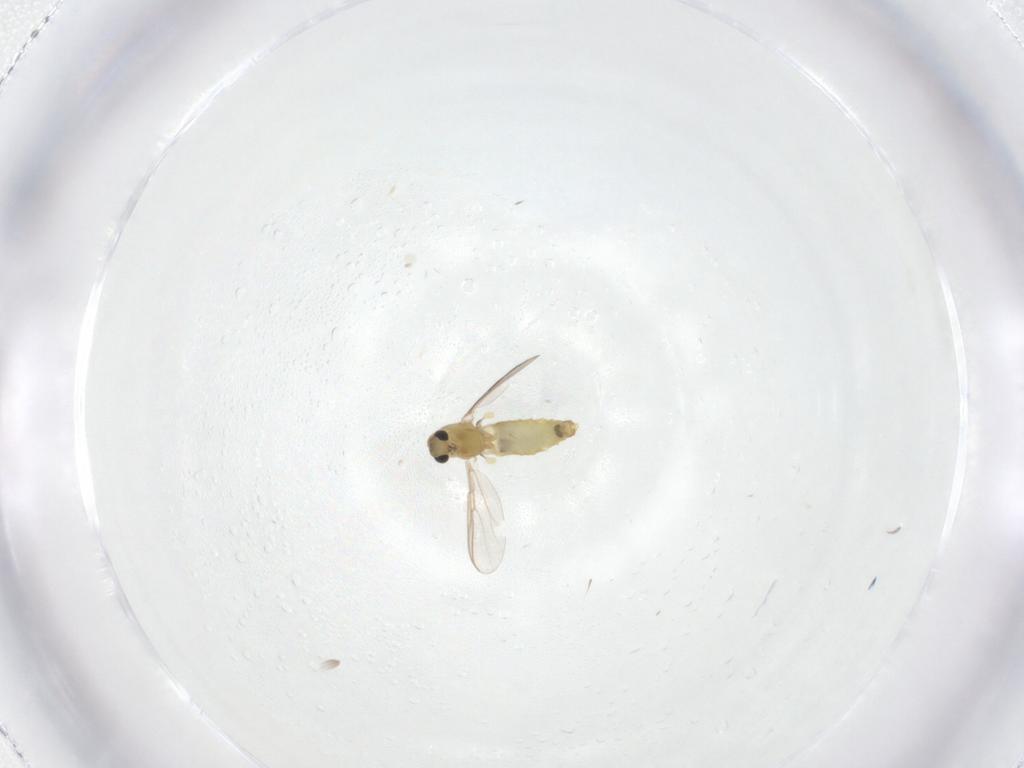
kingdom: Animalia
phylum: Arthropoda
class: Insecta
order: Diptera
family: Chironomidae
